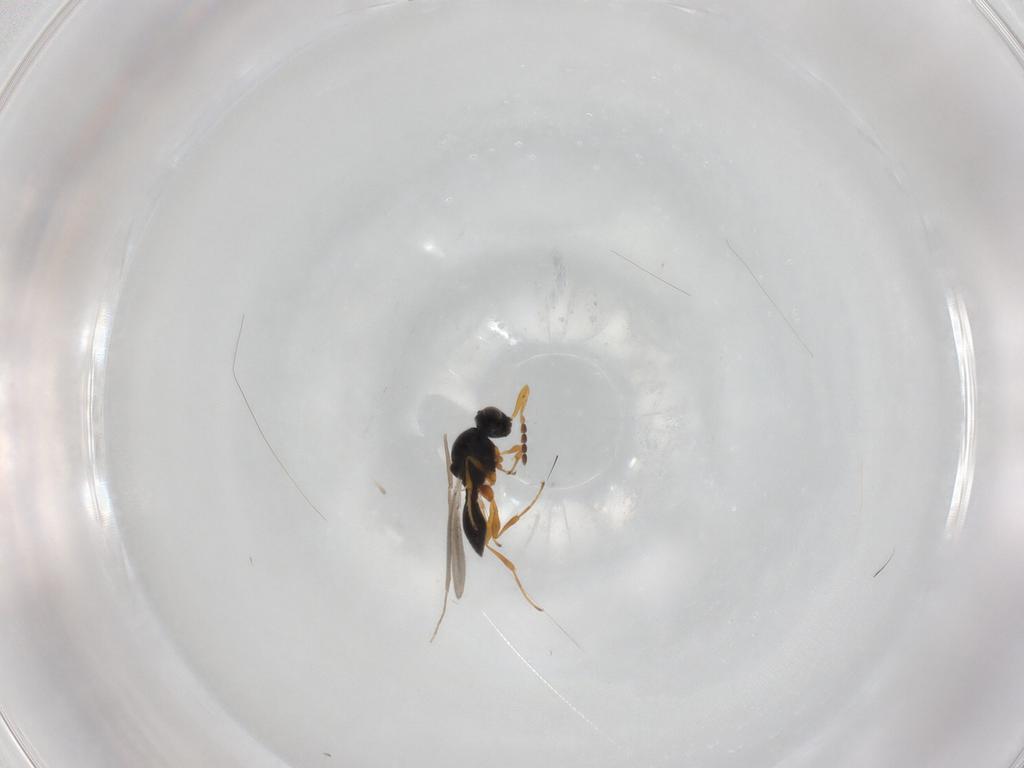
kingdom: Animalia
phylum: Arthropoda
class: Insecta
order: Hymenoptera
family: Platygastridae
